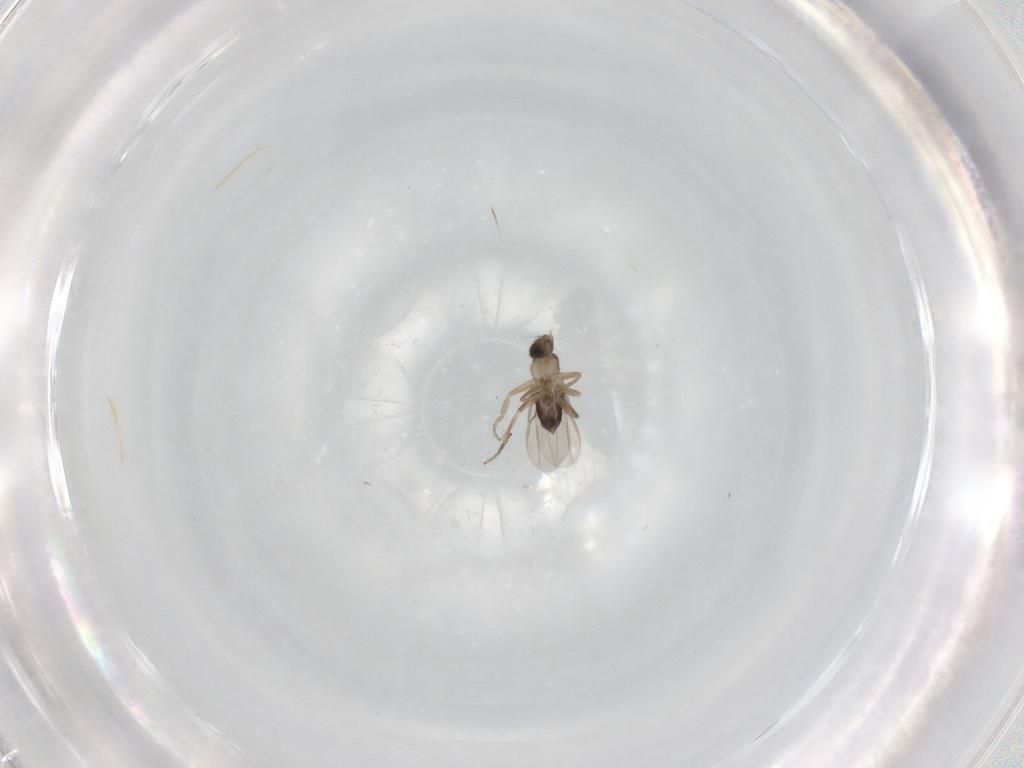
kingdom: Animalia
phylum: Arthropoda
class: Insecta
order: Diptera
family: Phoridae
